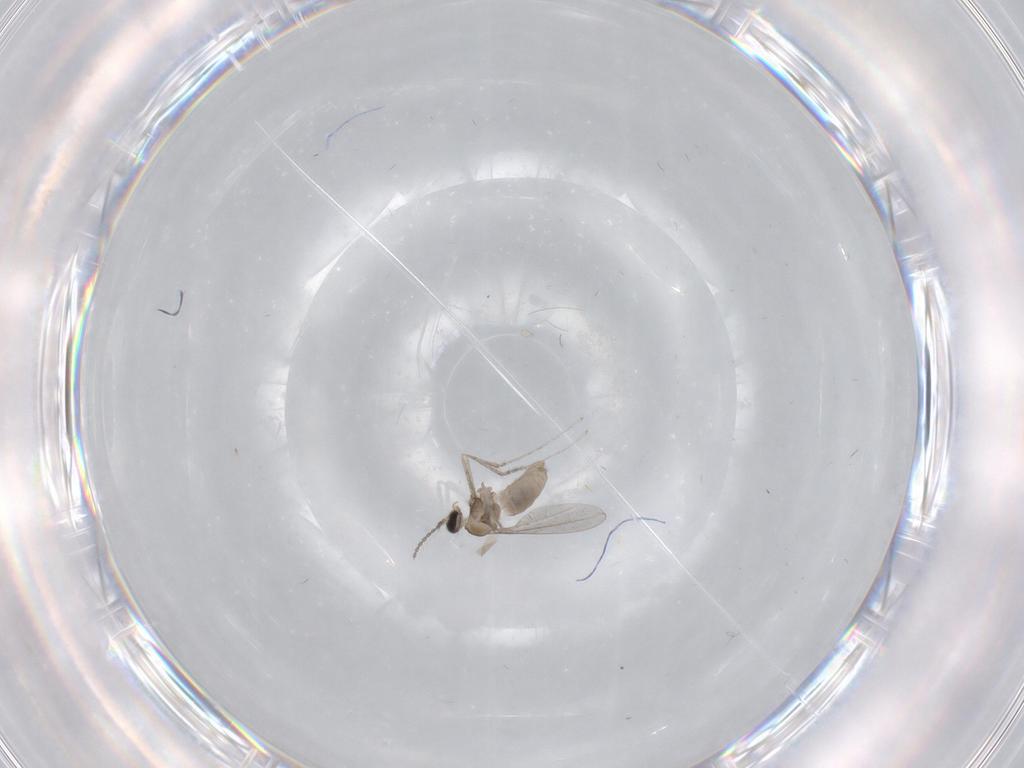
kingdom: Animalia
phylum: Arthropoda
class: Insecta
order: Diptera
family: Cecidomyiidae
